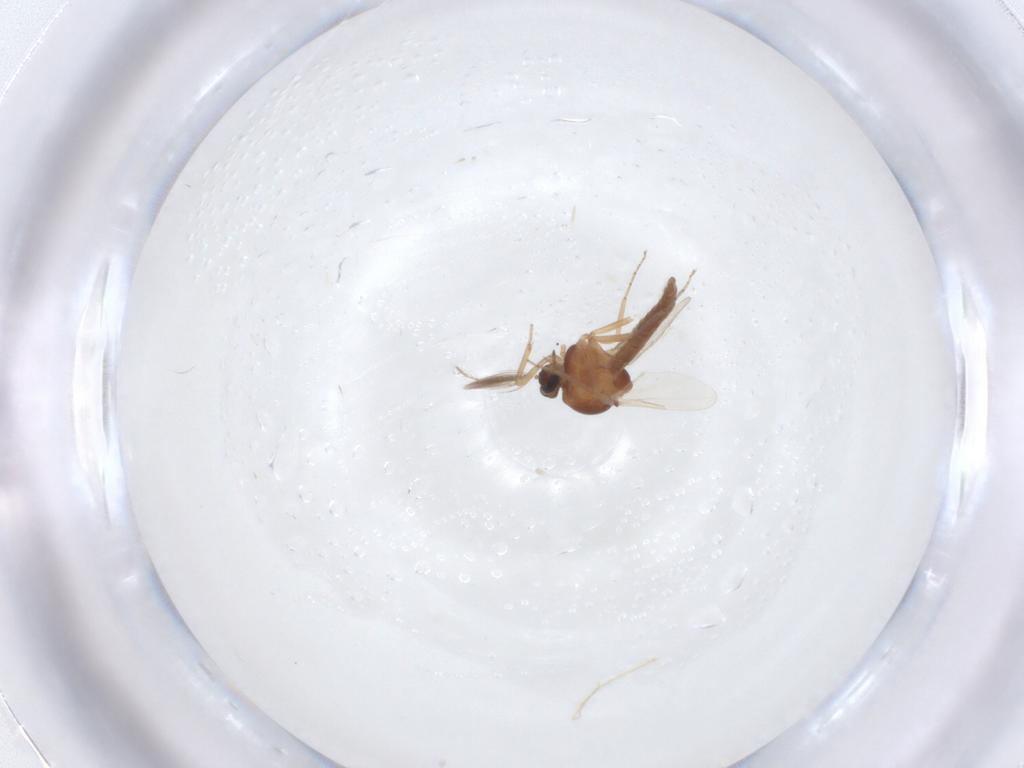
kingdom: Animalia
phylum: Arthropoda
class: Insecta
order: Diptera
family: Ceratopogonidae
